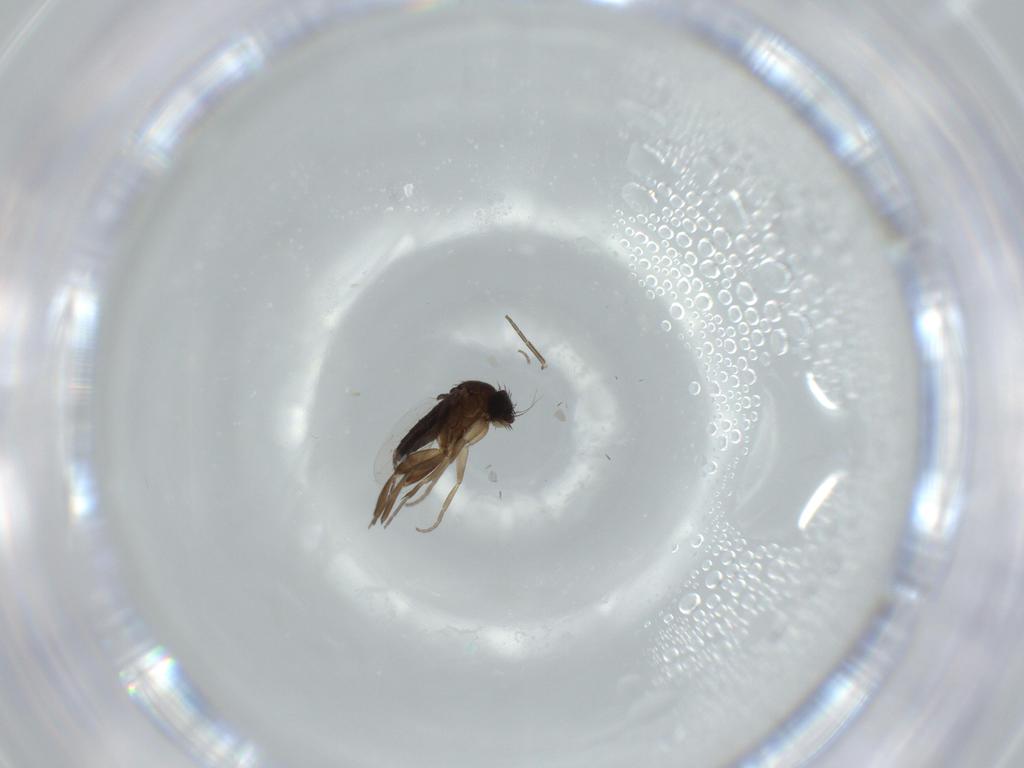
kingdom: Animalia
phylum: Arthropoda
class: Insecta
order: Diptera
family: Phoridae
